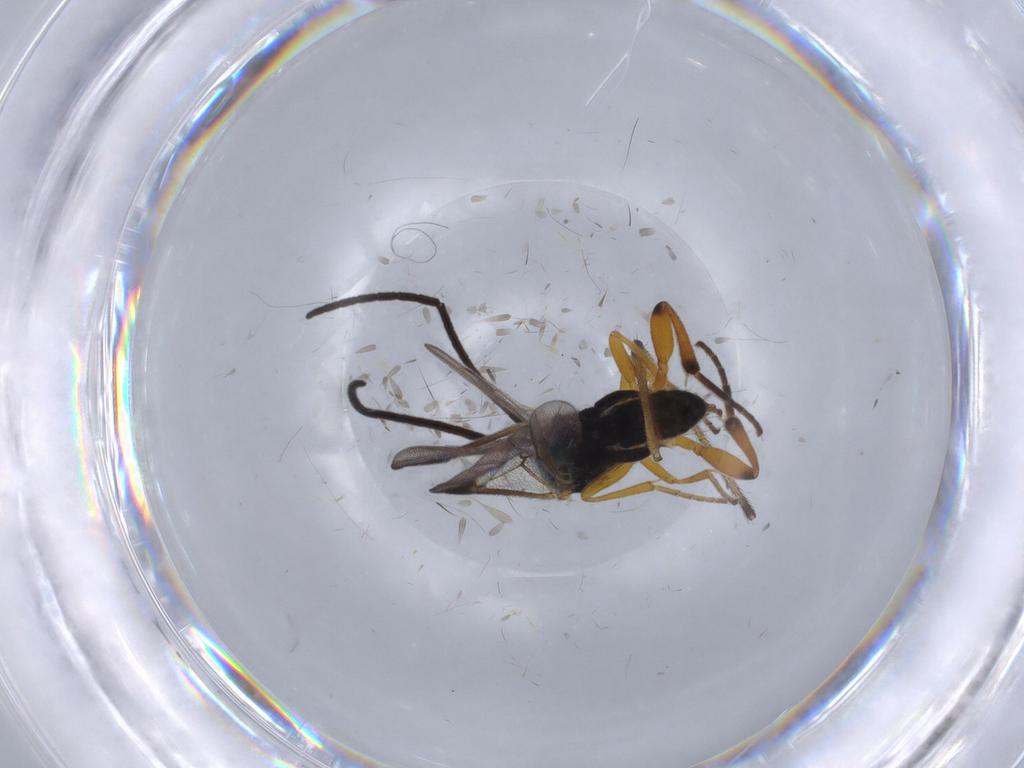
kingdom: Animalia
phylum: Arthropoda
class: Insecta
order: Hymenoptera
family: Braconidae
